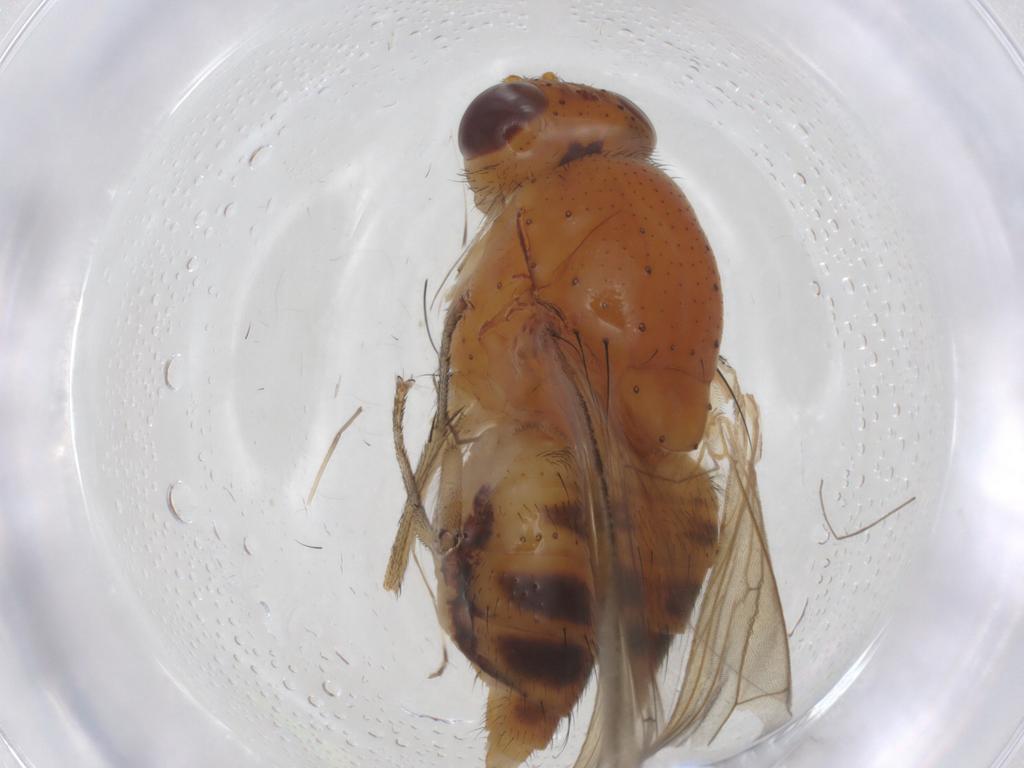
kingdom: Animalia
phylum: Arthropoda
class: Insecta
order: Diptera
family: Chironomidae
